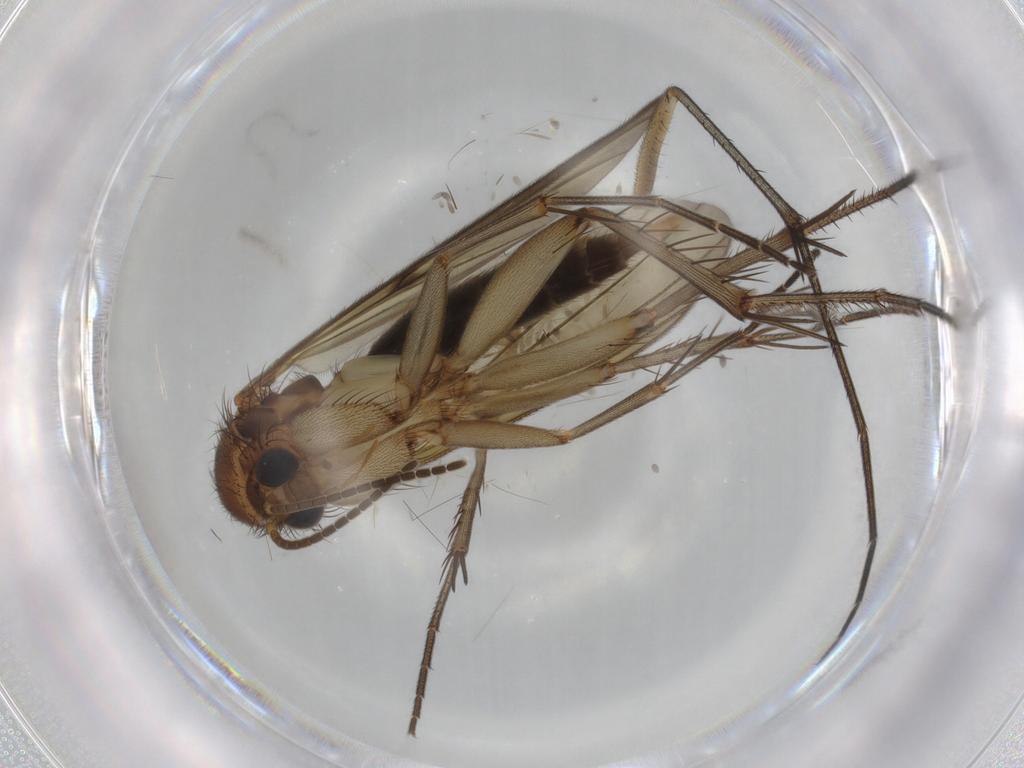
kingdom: Animalia
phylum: Arthropoda
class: Insecta
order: Diptera
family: Mycetophilidae
